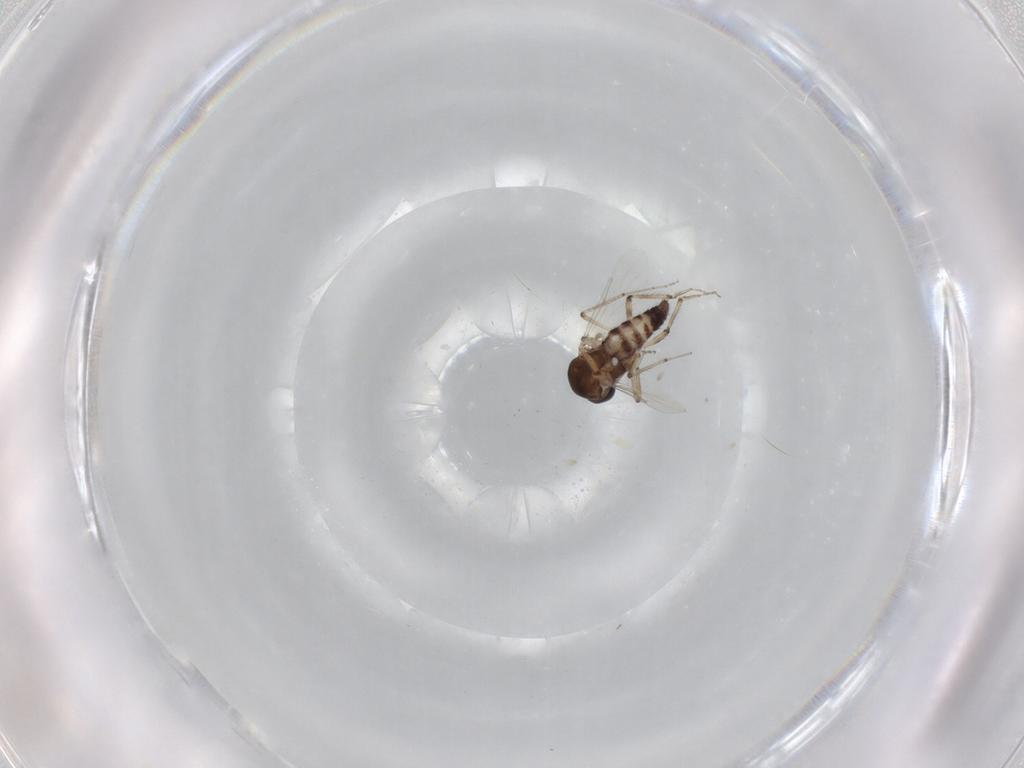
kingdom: Animalia
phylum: Arthropoda
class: Insecta
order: Diptera
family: Ceratopogonidae
